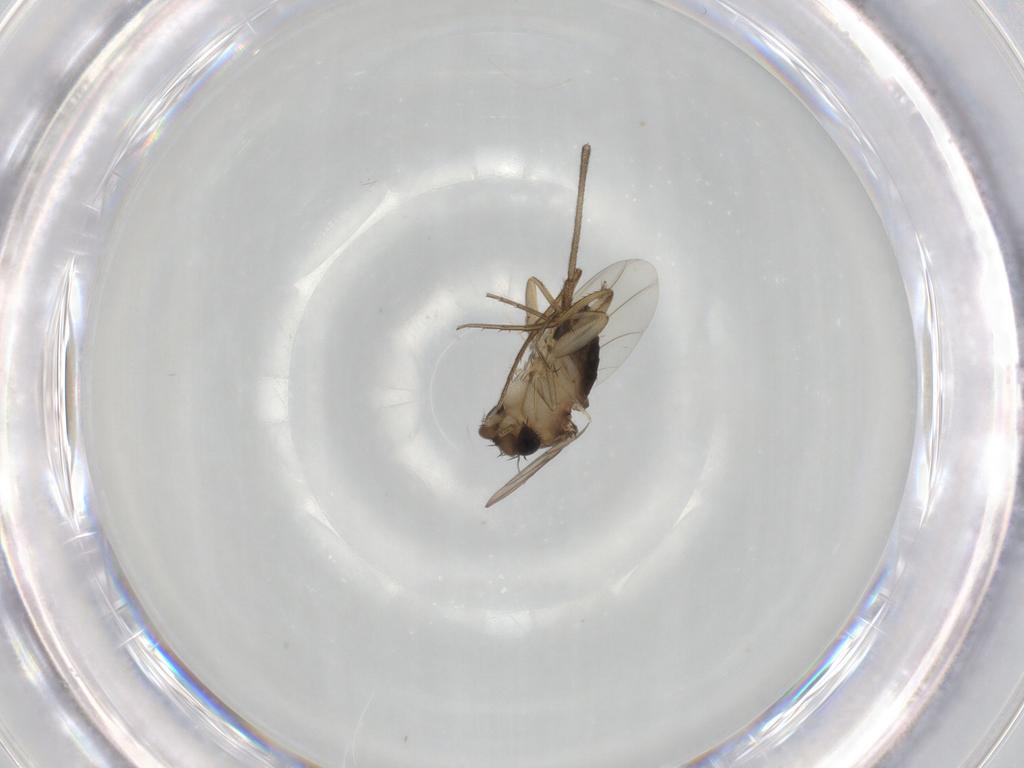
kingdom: Animalia
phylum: Arthropoda
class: Insecta
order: Diptera
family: Phoridae
